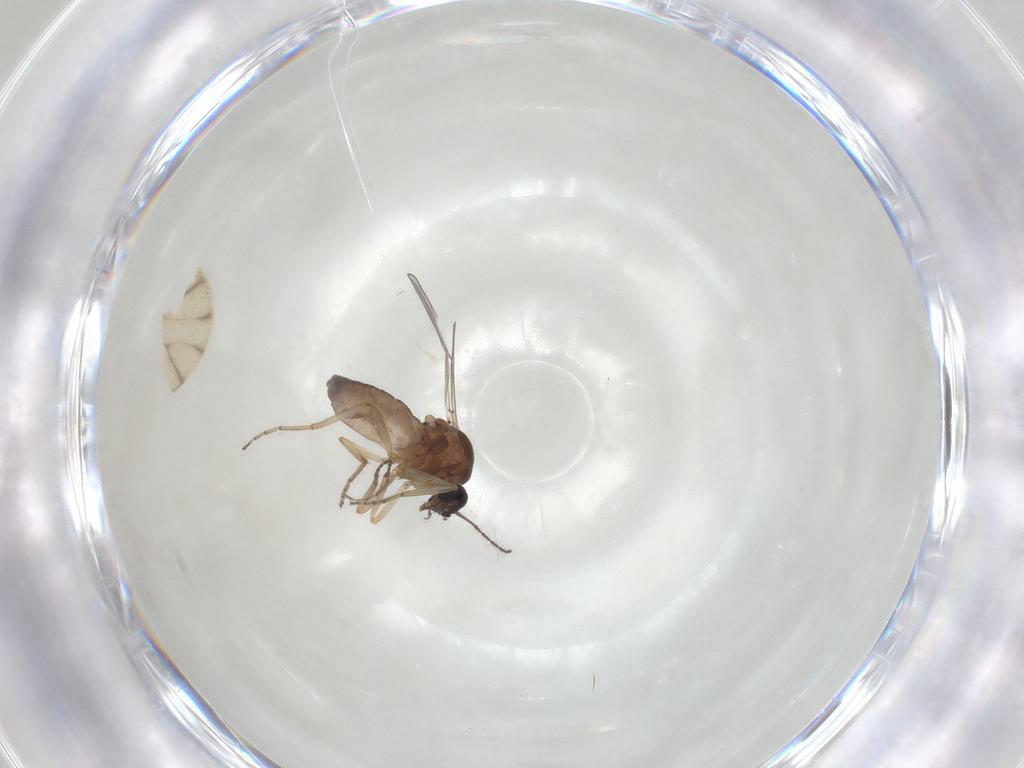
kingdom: Animalia
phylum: Arthropoda
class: Insecta
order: Diptera
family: Ceratopogonidae
